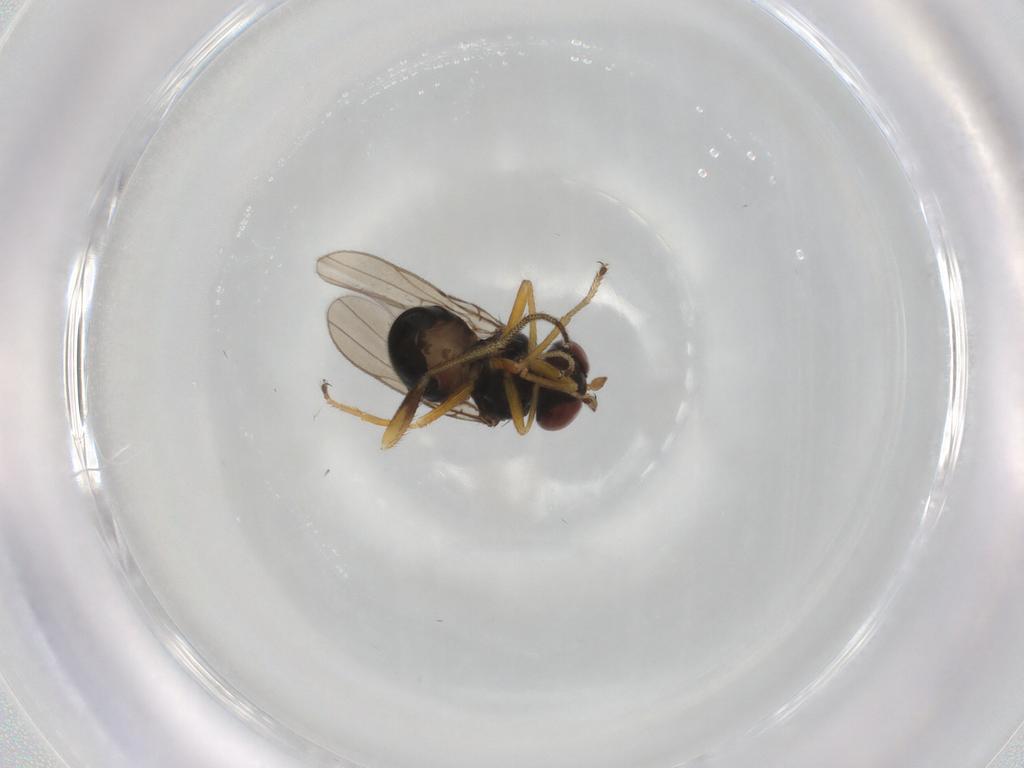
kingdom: Animalia
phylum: Arthropoda
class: Insecta
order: Diptera
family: Ephydridae
